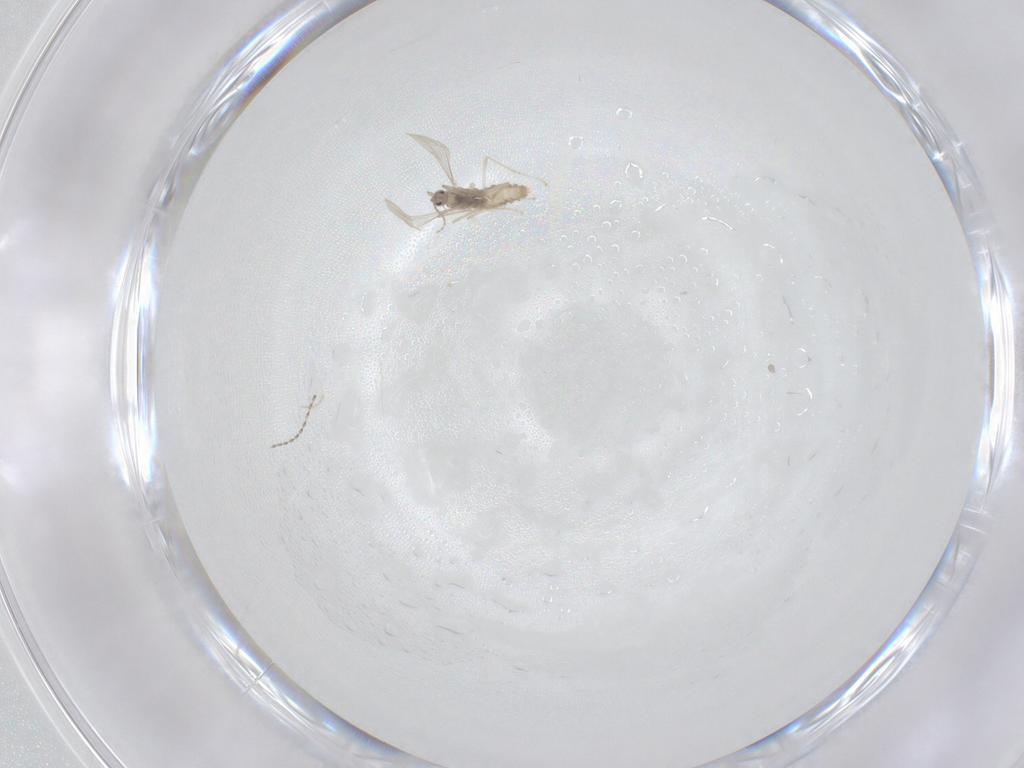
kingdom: Animalia
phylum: Arthropoda
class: Insecta
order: Diptera
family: Cecidomyiidae
